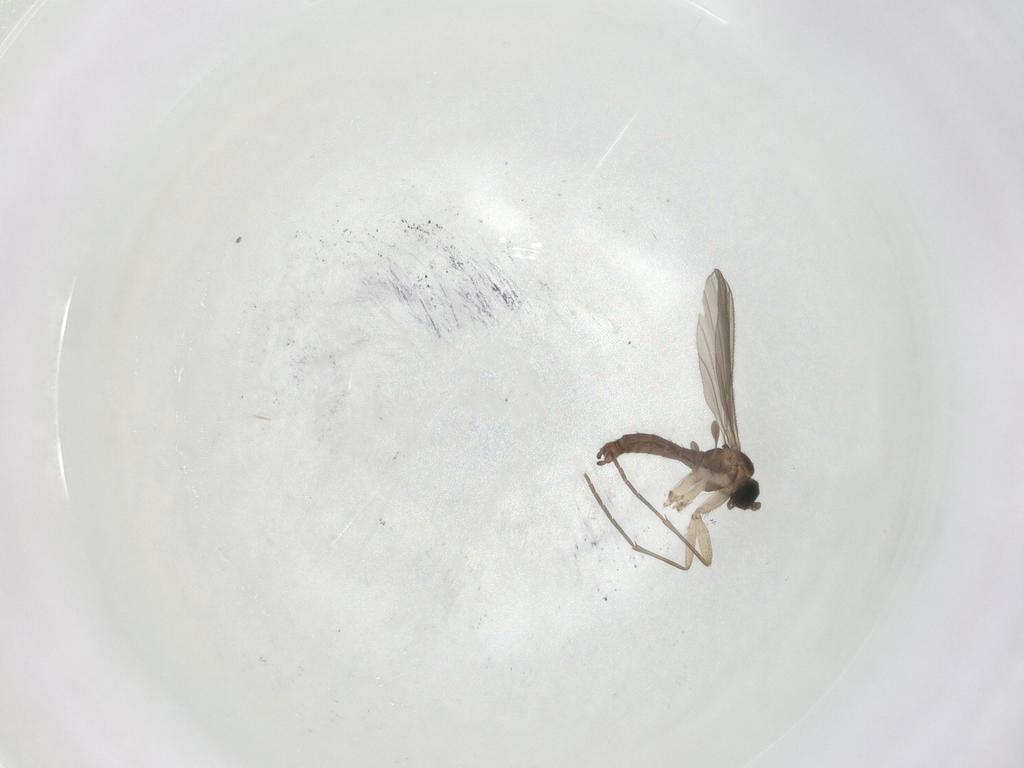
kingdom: Animalia
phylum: Arthropoda
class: Insecta
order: Diptera
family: Sciaridae
